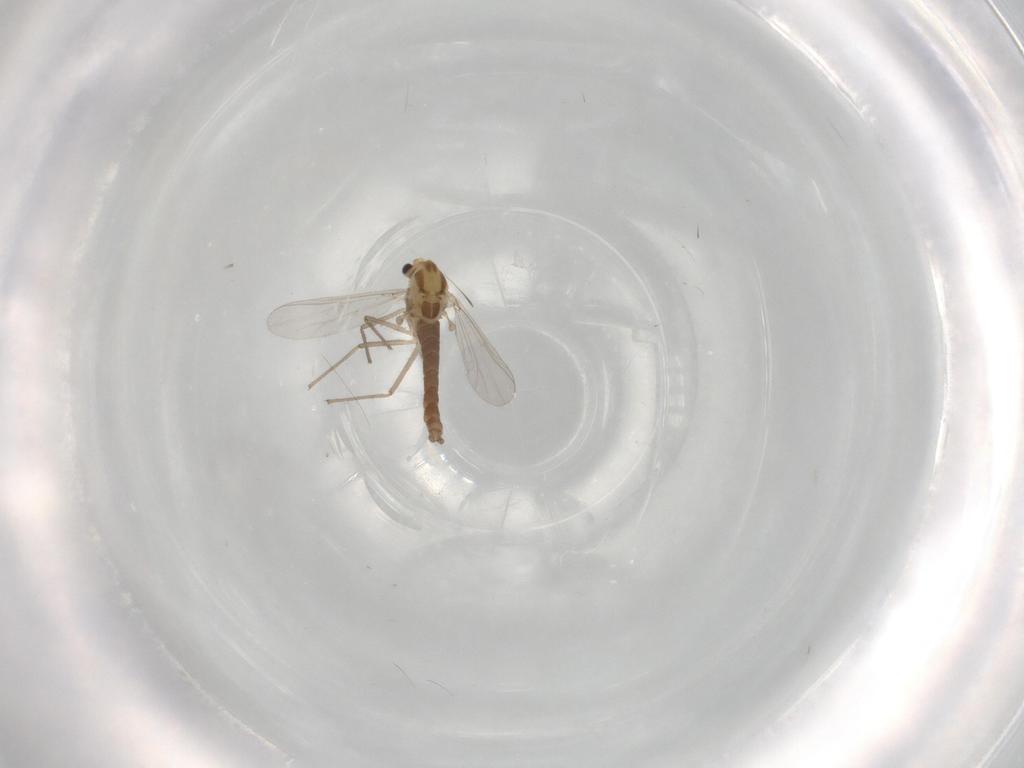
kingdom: Animalia
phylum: Arthropoda
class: Insecta
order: Diptera
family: Chironomidae
